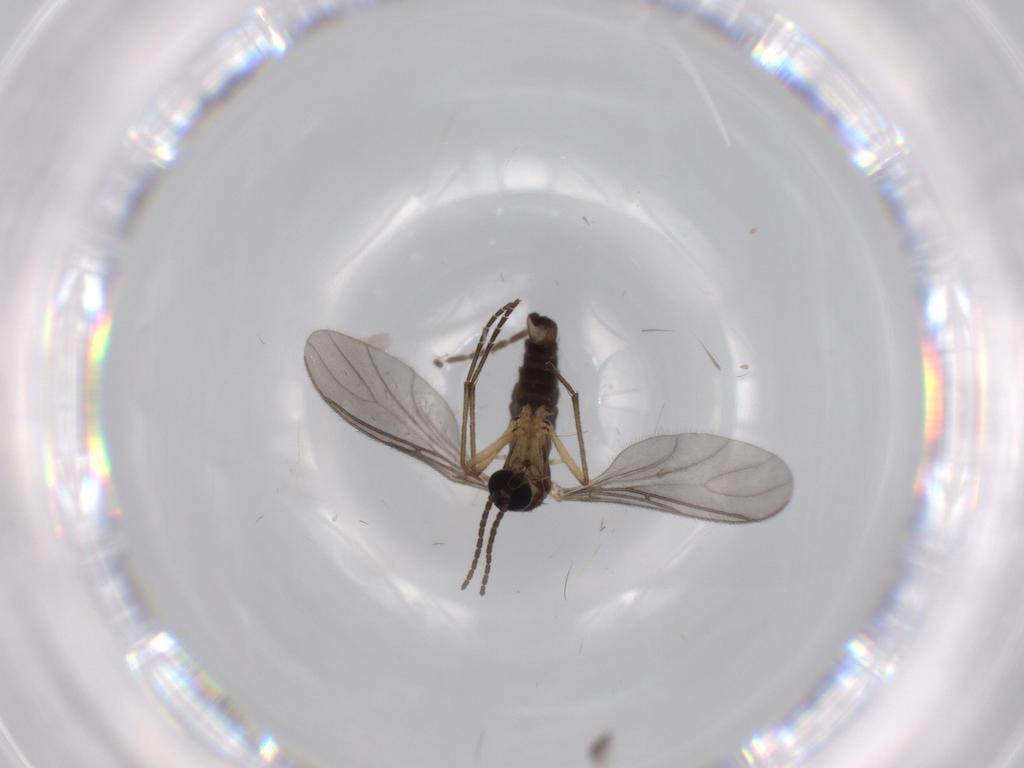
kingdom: Animalia
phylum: Arthropoda
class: Insecta
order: Diptera
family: Sciaridae
